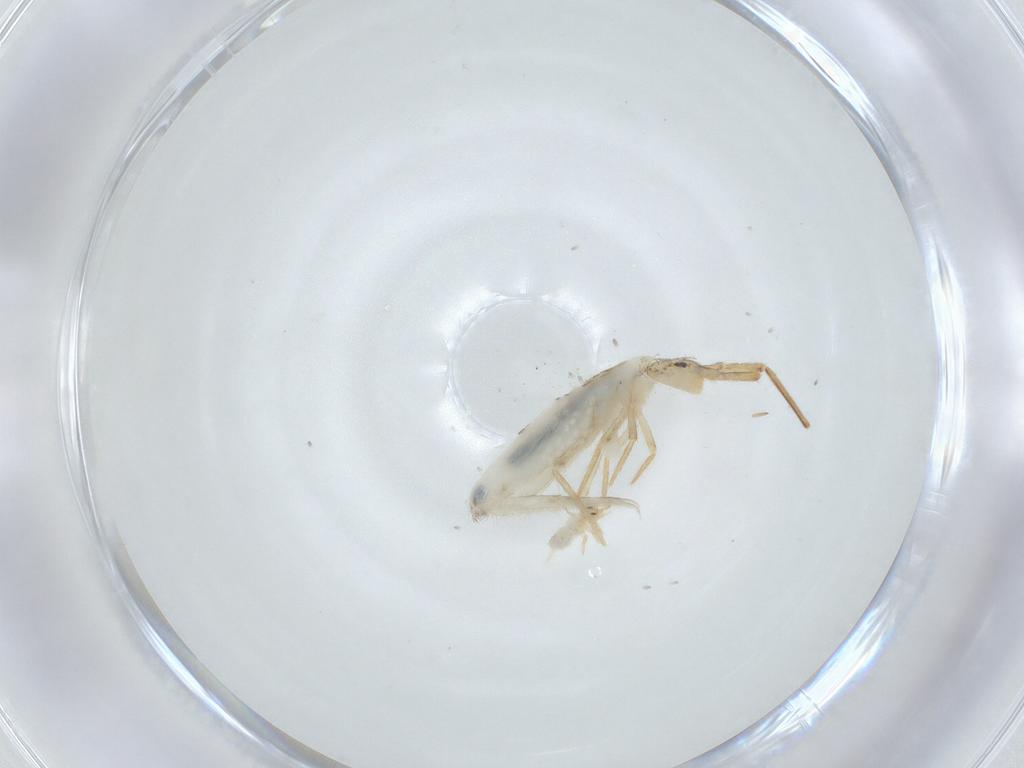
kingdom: Animalia
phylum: Arthropoda
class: Collembola
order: Entomobryomorpha
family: Entomobryidae
